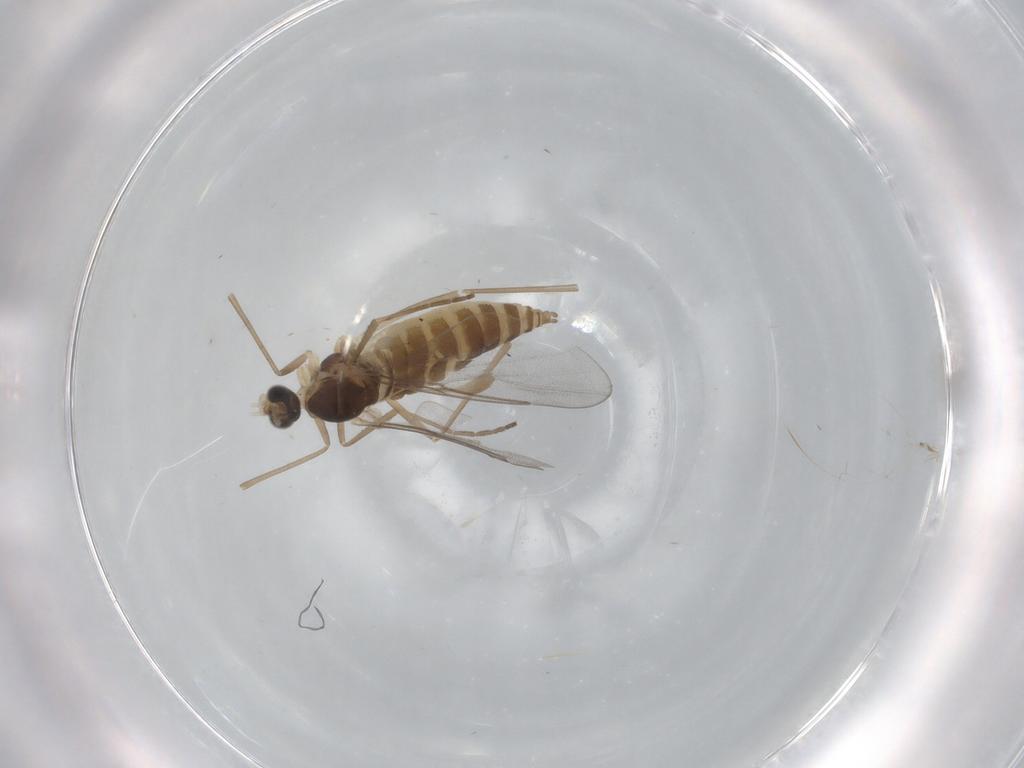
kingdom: Animalia
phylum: Arthropoda
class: Insecta
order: Diptera
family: Cecidomyiidae
